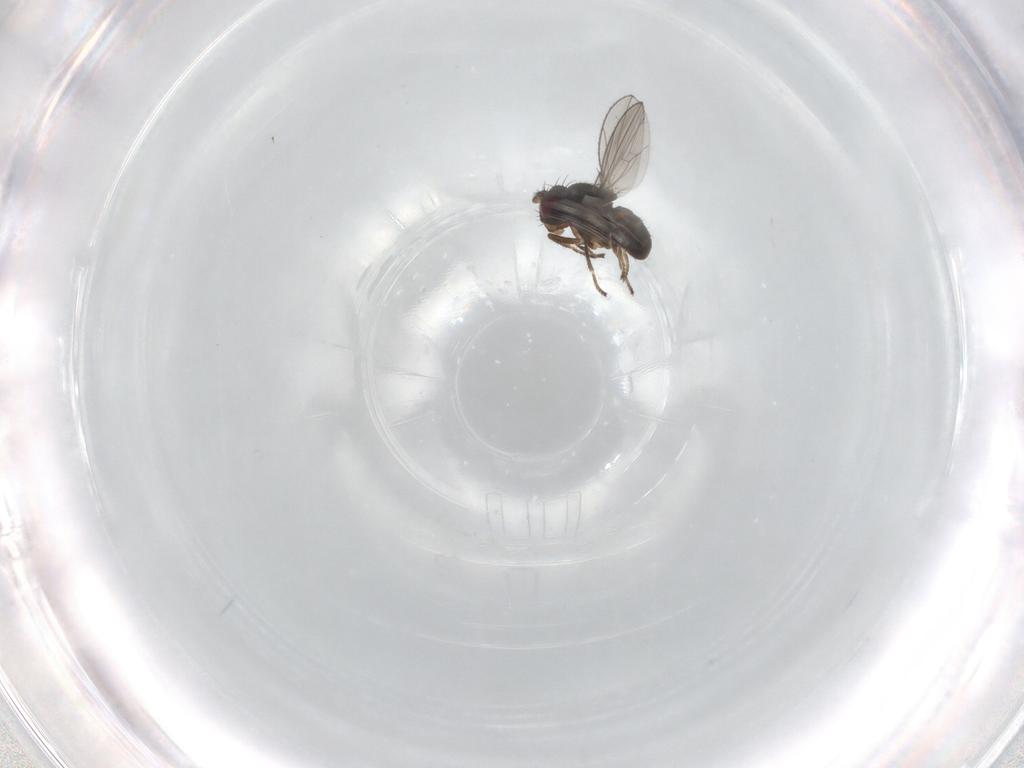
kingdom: Animalia
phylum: Arthropoda
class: Insecta
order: Diptera
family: Ephydridae
